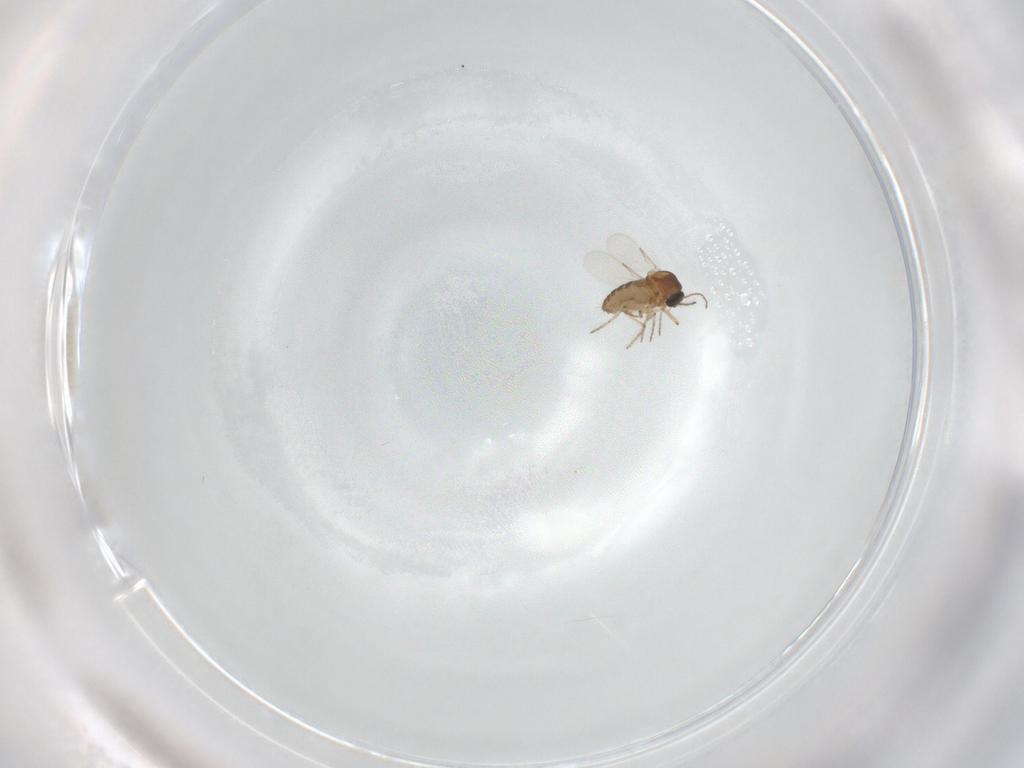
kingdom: Animalia
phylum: Arthropoda
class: Insecta
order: Diptera
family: Ceratopogonidae
